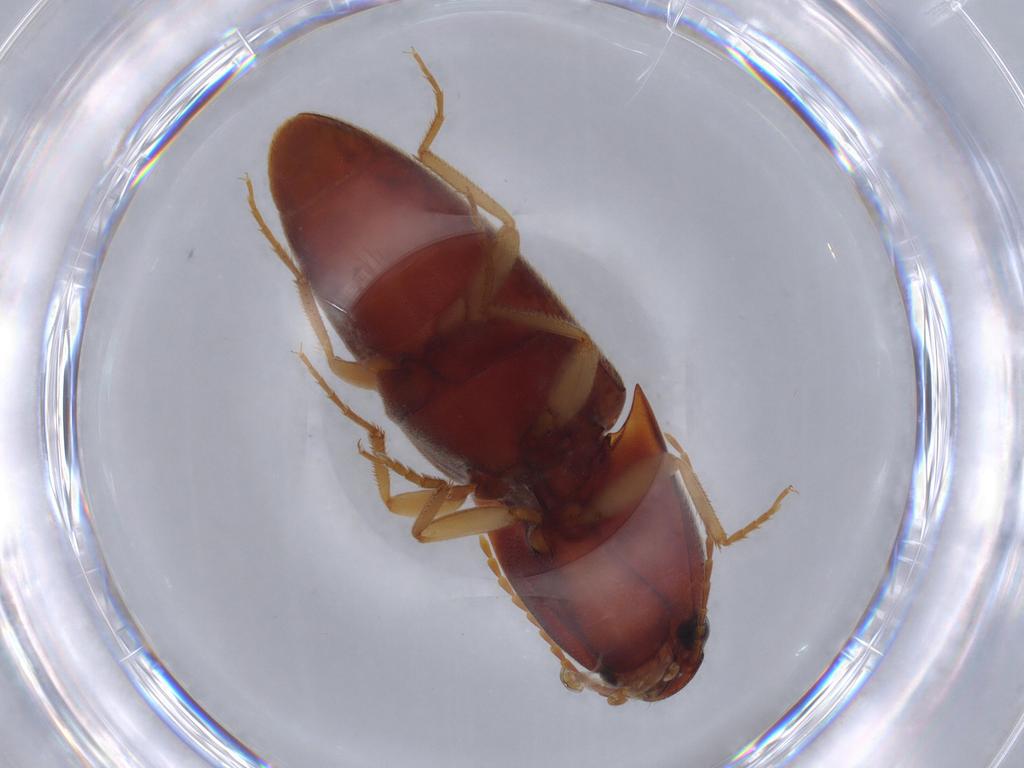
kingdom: Animalia
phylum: Arthropoda
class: Insecta
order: Coleoptera
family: Elateridae
